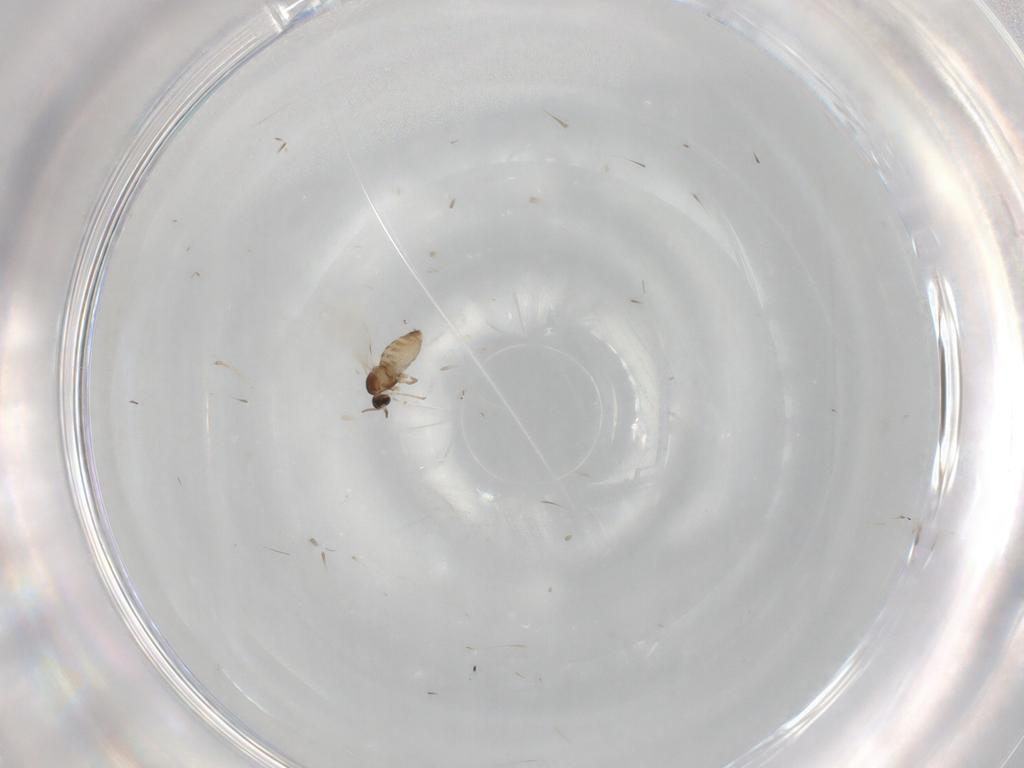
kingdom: Animalia
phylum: Arthropoda
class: Insecta
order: Diptera
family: Cecidomyiidae
